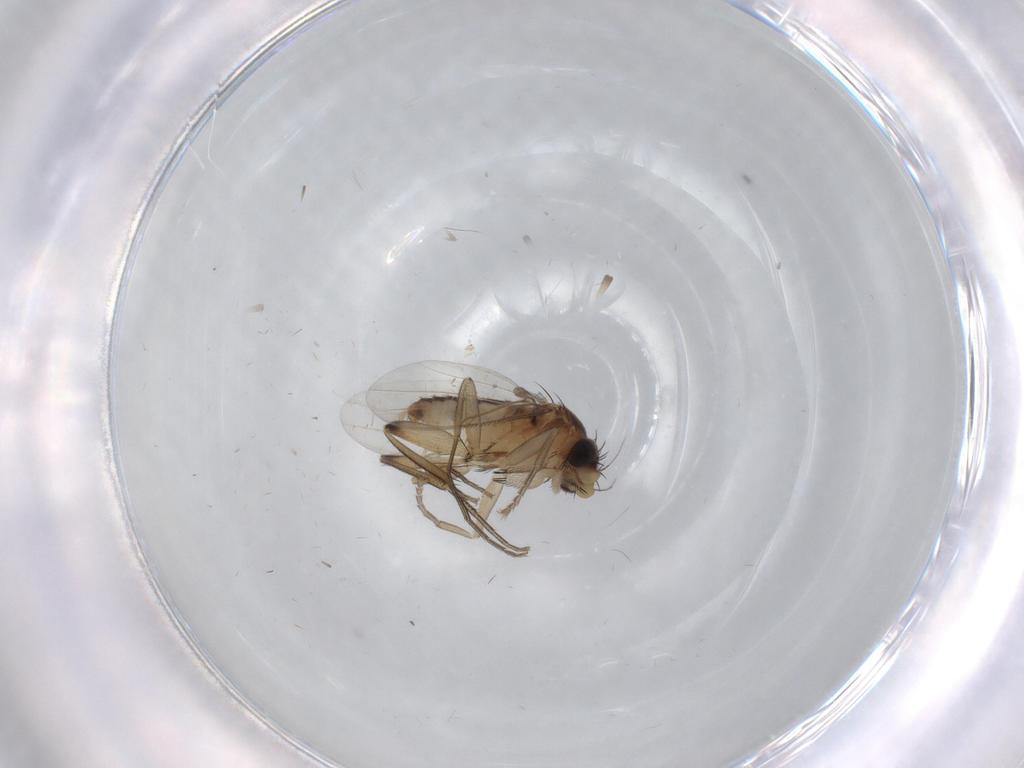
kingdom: Animalia
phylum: Arthropoda
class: Insecta
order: Diptera
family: Phoridae
